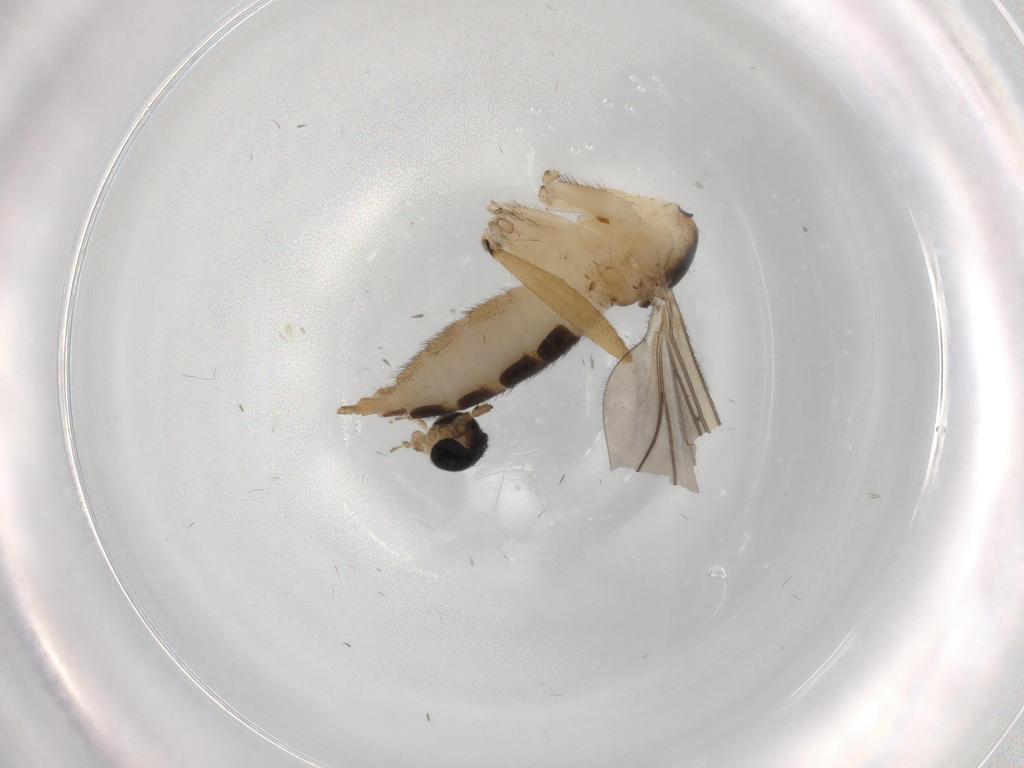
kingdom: Animalia
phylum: Arthropoda
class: Insecta
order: Diptera
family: Sciaridae
